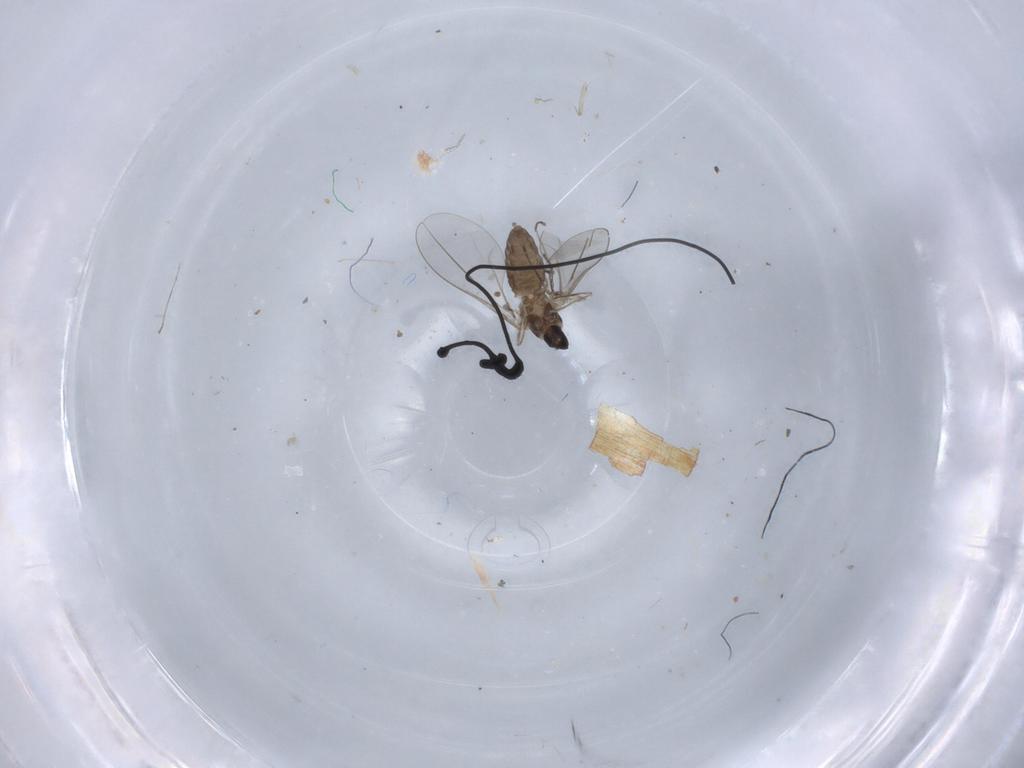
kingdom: Animalia
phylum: Arthropoda
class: Insecta
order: Diptera
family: Cecidomyiidae
